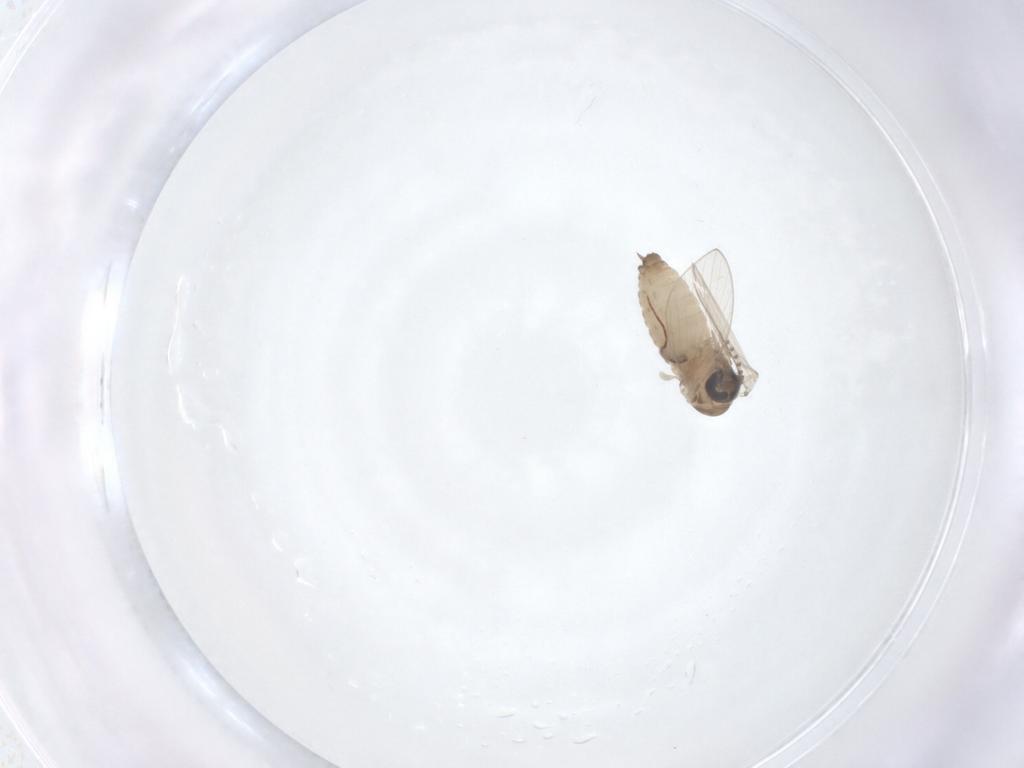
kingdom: Animalia
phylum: Arthropoda
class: Insecta
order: Diptera
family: Psychodidae
